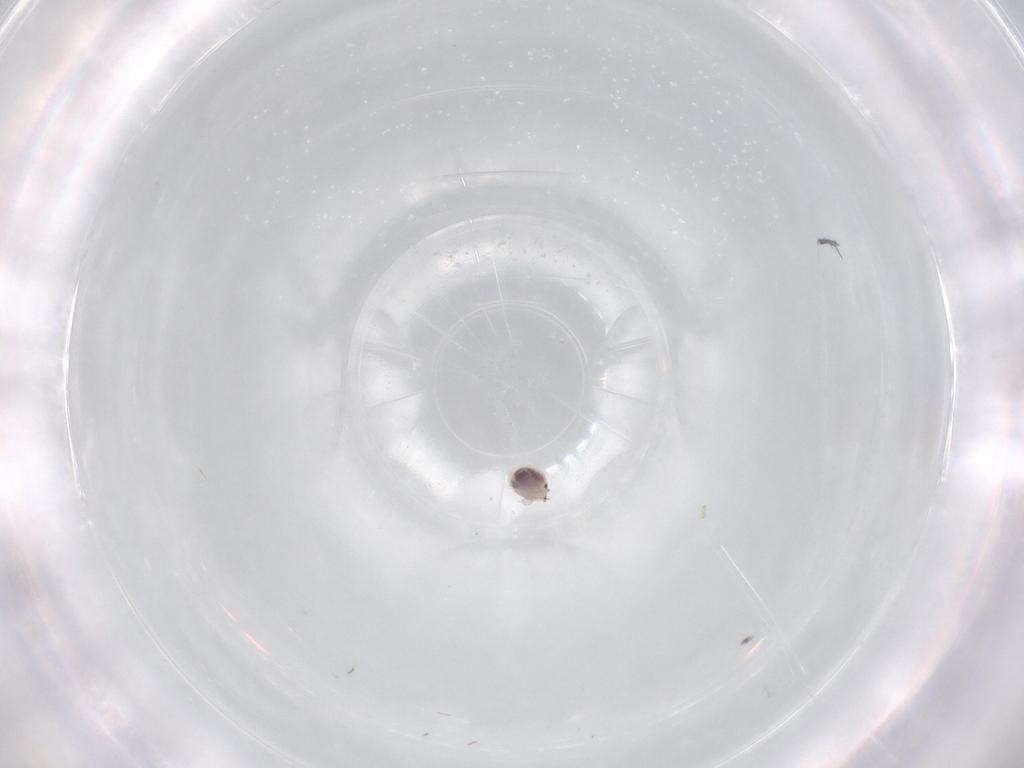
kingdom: Animalia
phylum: Arthropoda
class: Arachnida
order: Trombidiformes
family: Pionidae
